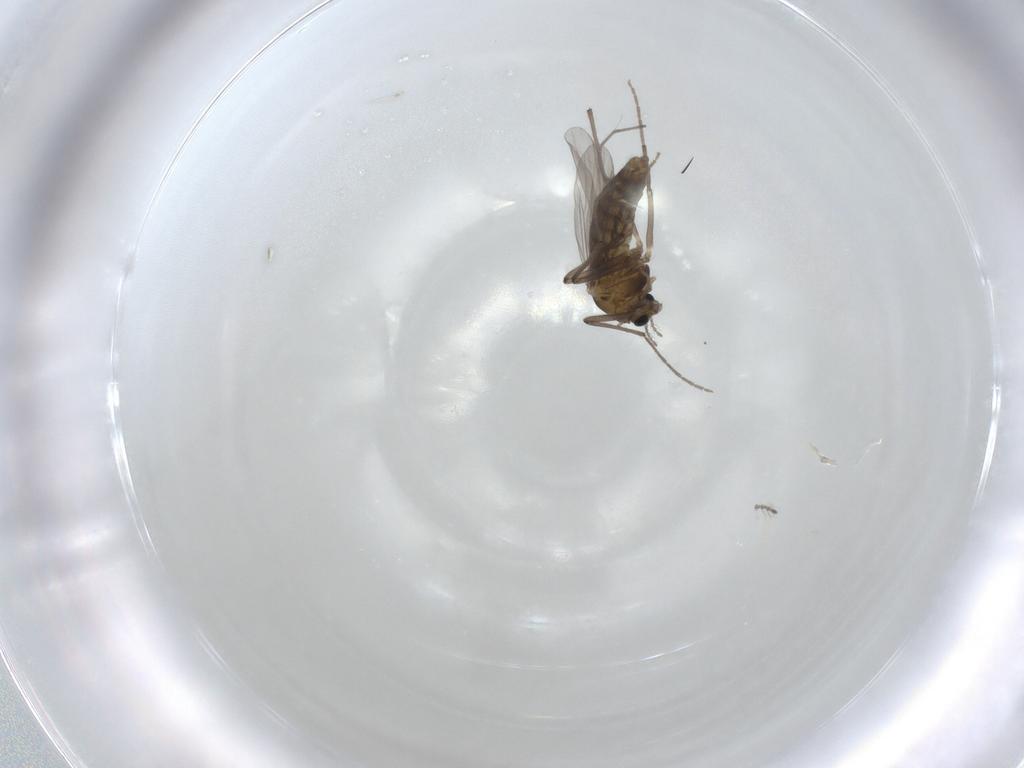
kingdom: Animalia
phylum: Arthropoda
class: Insecta
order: Diptera
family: Chironomidae
